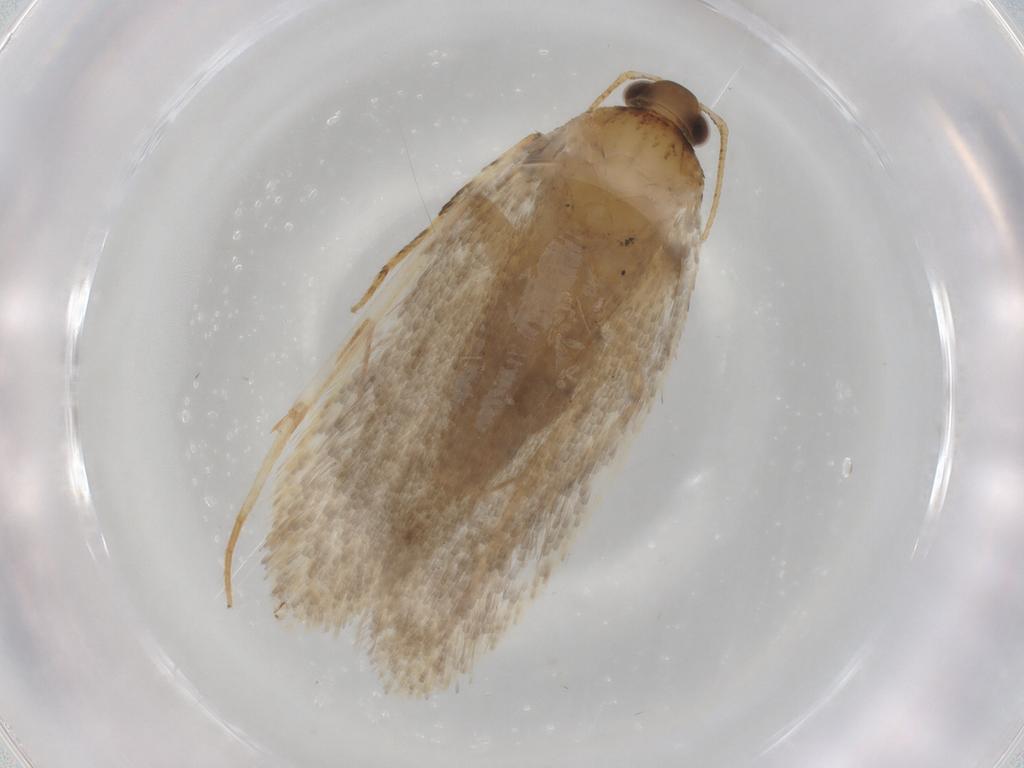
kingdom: Animalia
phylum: Arthropoda
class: Insecta
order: Lepidoptera
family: Gelechiidae
